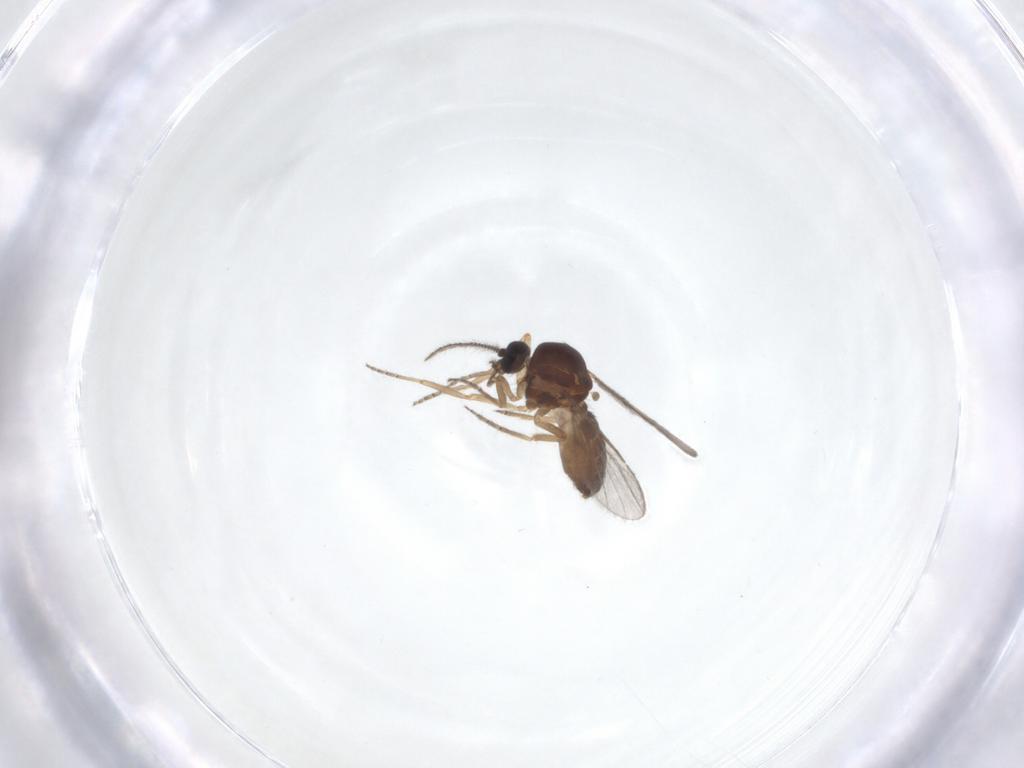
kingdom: Animalia
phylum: Arthropoda
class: Insecta
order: Diptera
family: Ceratopogonidae
